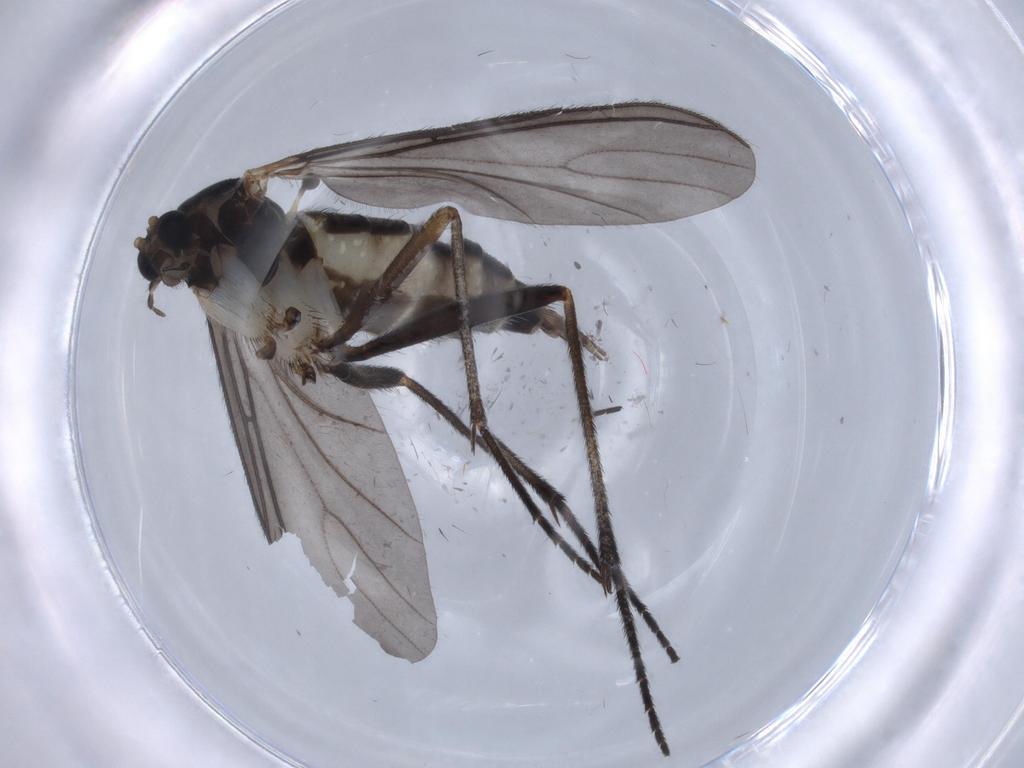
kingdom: Animalia
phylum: Arthropoda
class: Insecta
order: Diptera
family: Sciaridae
